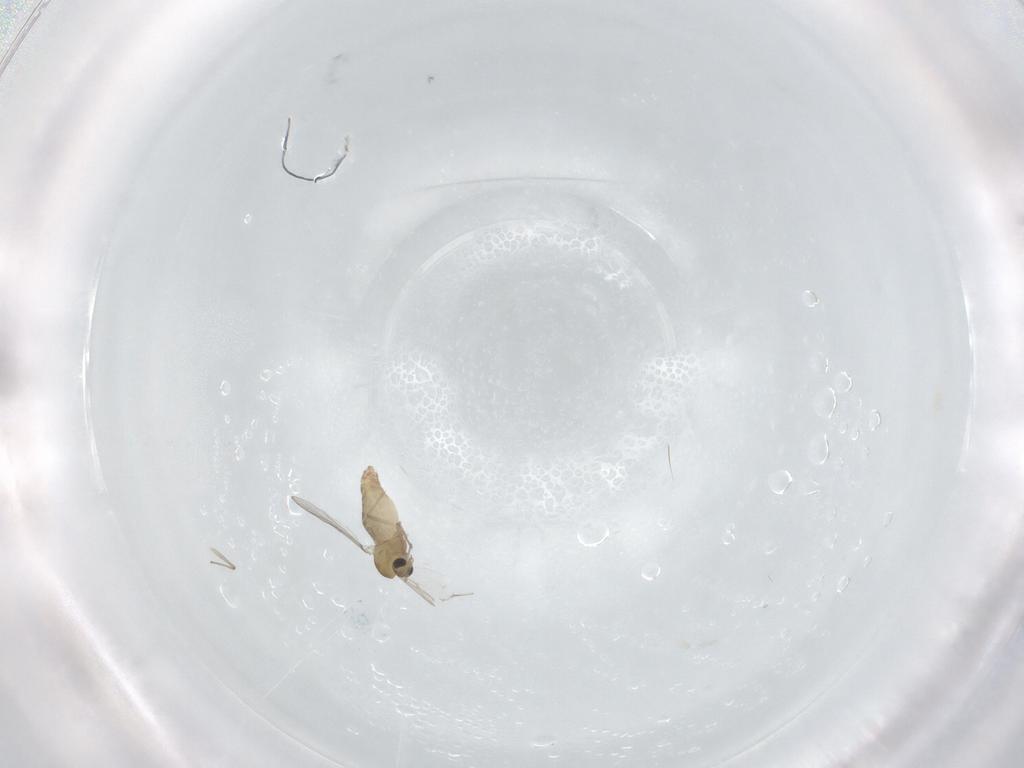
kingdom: Animalia
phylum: Arthropoda
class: Insecta
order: Diptera
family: Chironomidae
